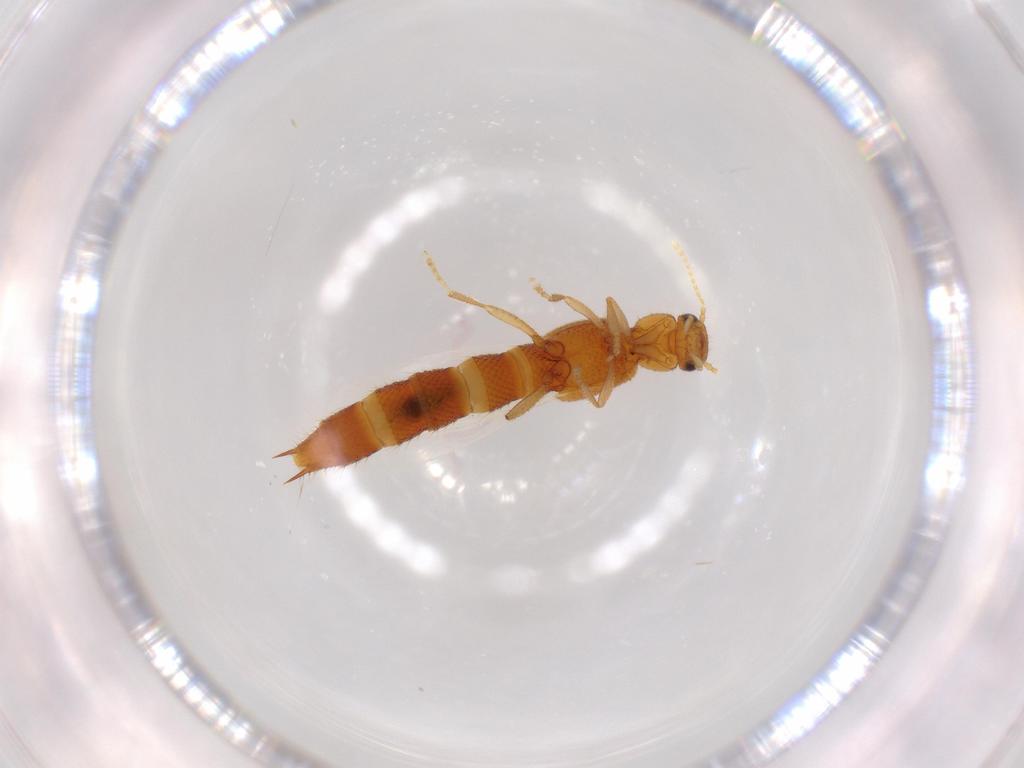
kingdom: Animalia
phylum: Arthropoda
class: Insecta
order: Coleoptera
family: Staphylinidae
